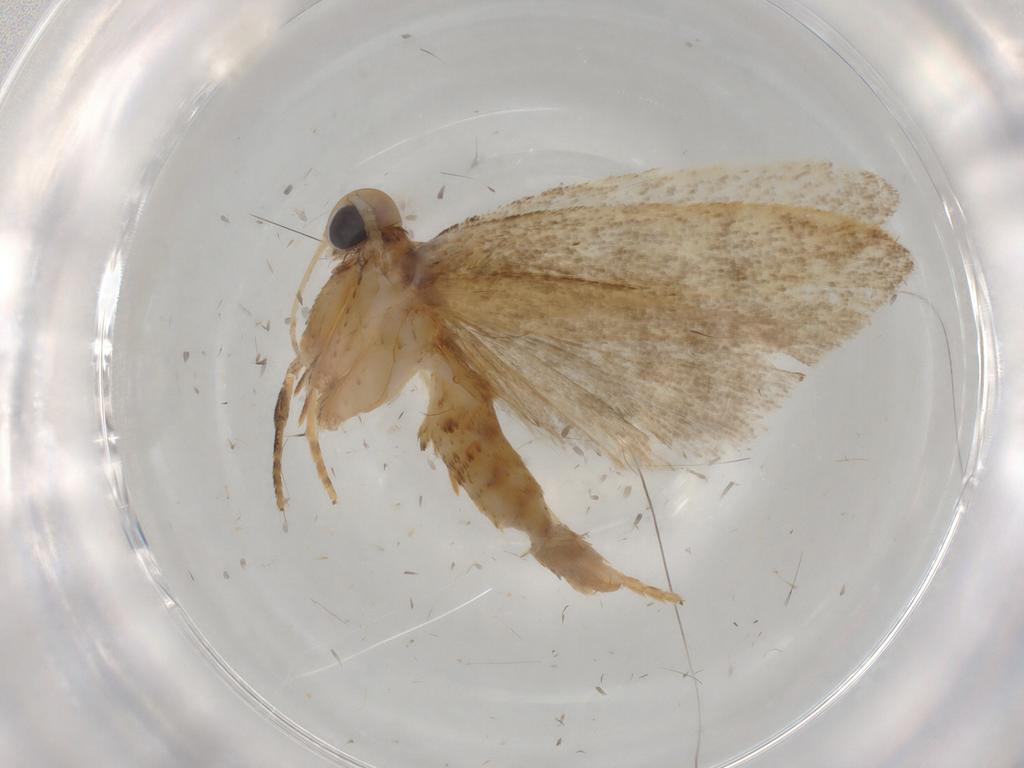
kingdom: Animalia
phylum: Arthropoda
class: Insecta
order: Lepidoptera
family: Autostichidae
